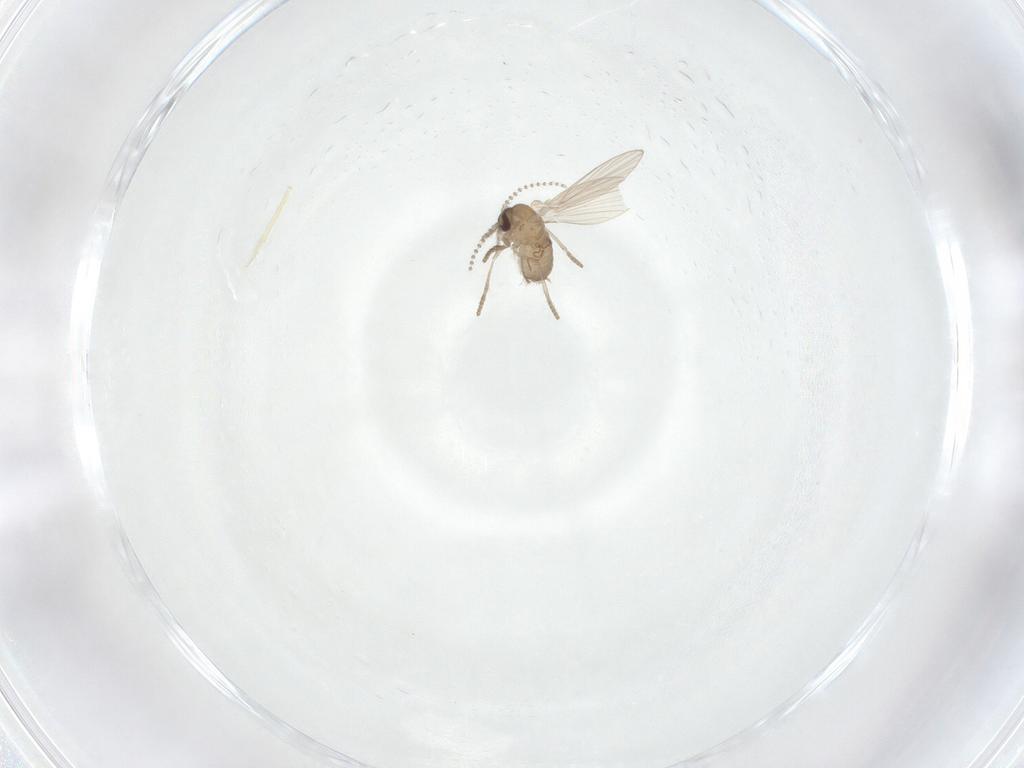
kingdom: Animalia
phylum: Arthropoda
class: Insecta
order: Diptera
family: Psychodidae
